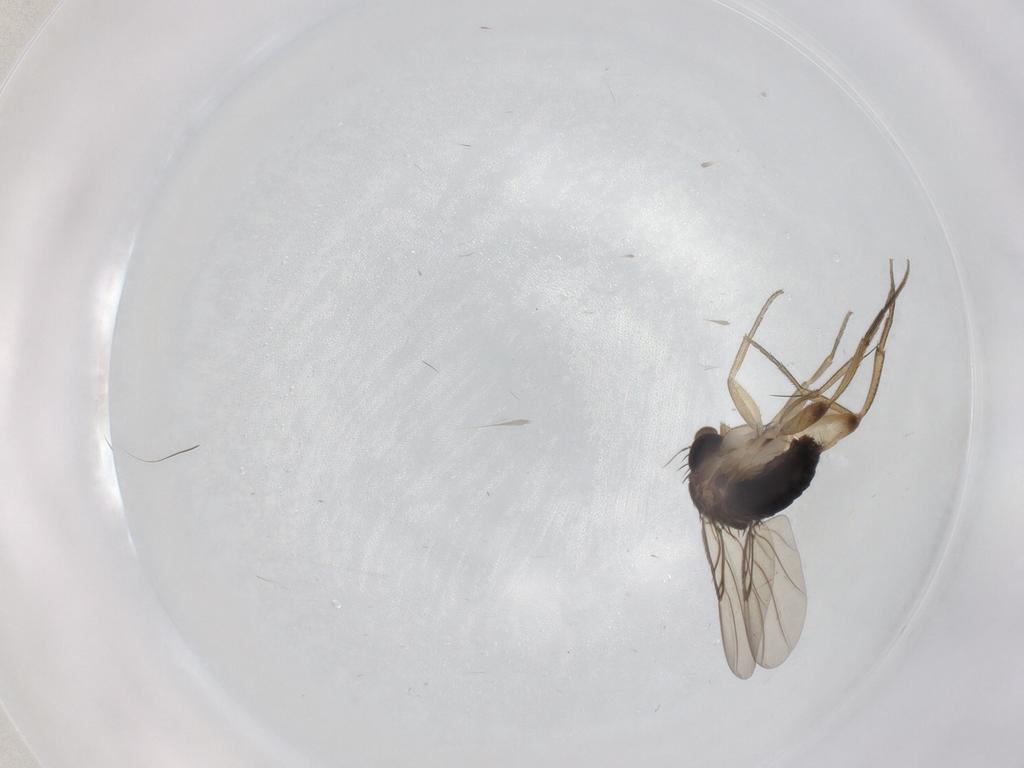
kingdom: Animalia
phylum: Arthropoda
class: Insecta
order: Diptera
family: Phoridae
